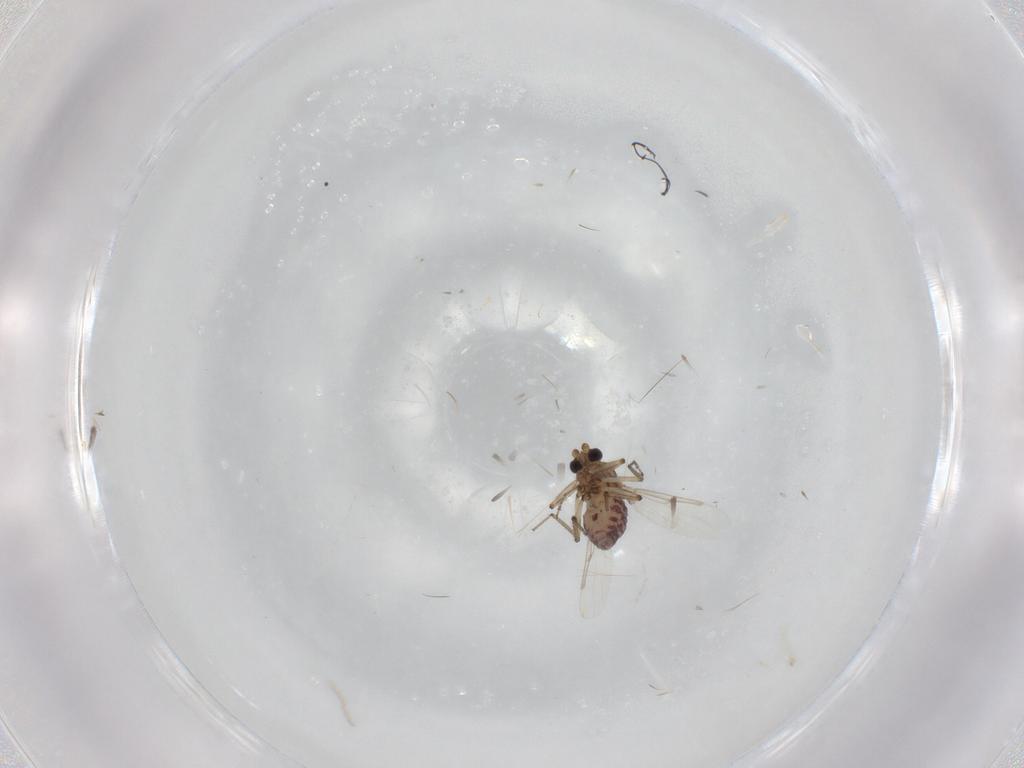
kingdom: Animalia
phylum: Arthropoda
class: Insecta
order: Diptera
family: Ceratopogonidae
